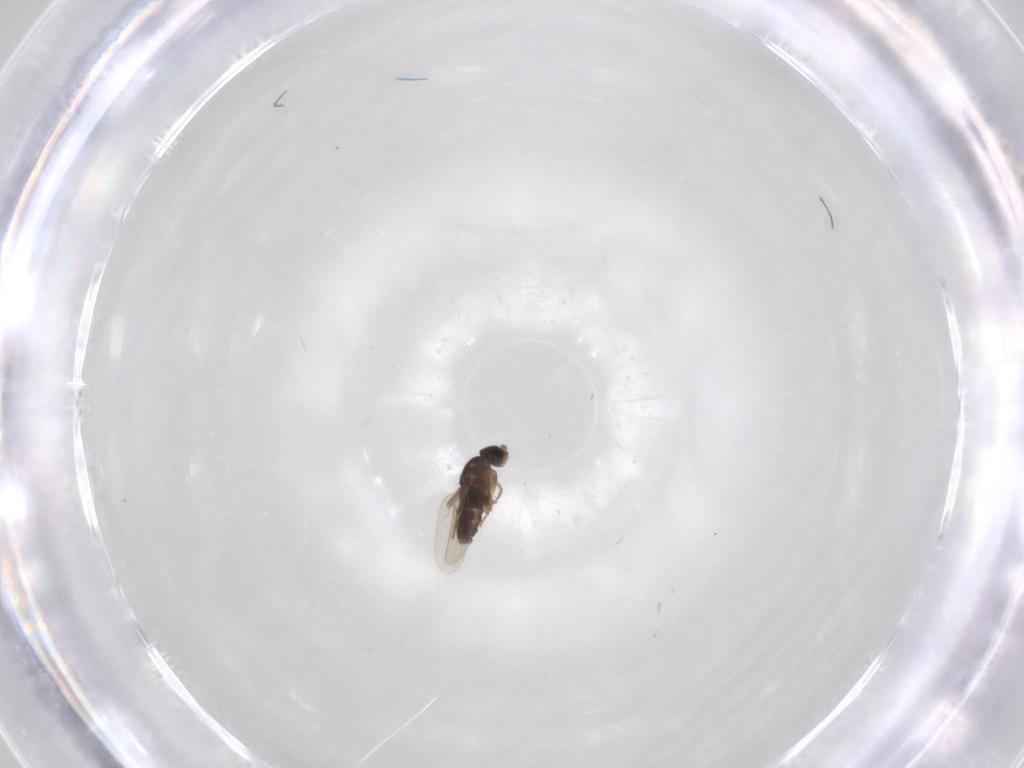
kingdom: Animalia
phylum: Arthropoda
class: Insecta
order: Diptera
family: Phoridae
